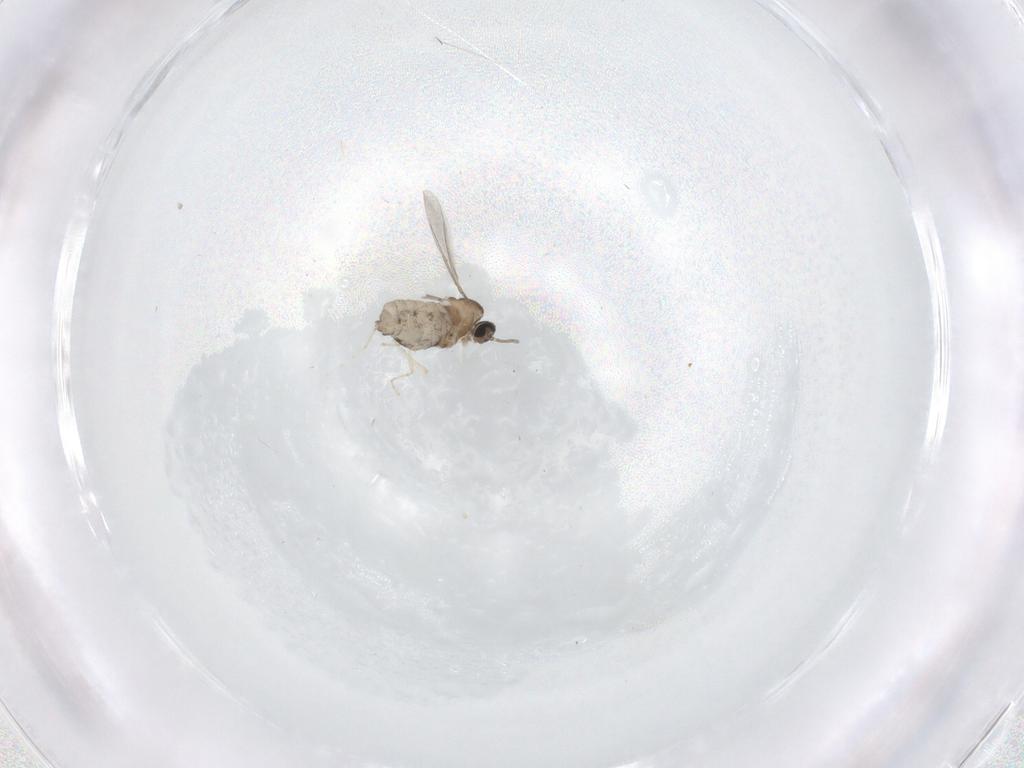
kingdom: Animalia
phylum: Arthropoda
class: Insecta
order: Diptera
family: Cecidomyiidae
